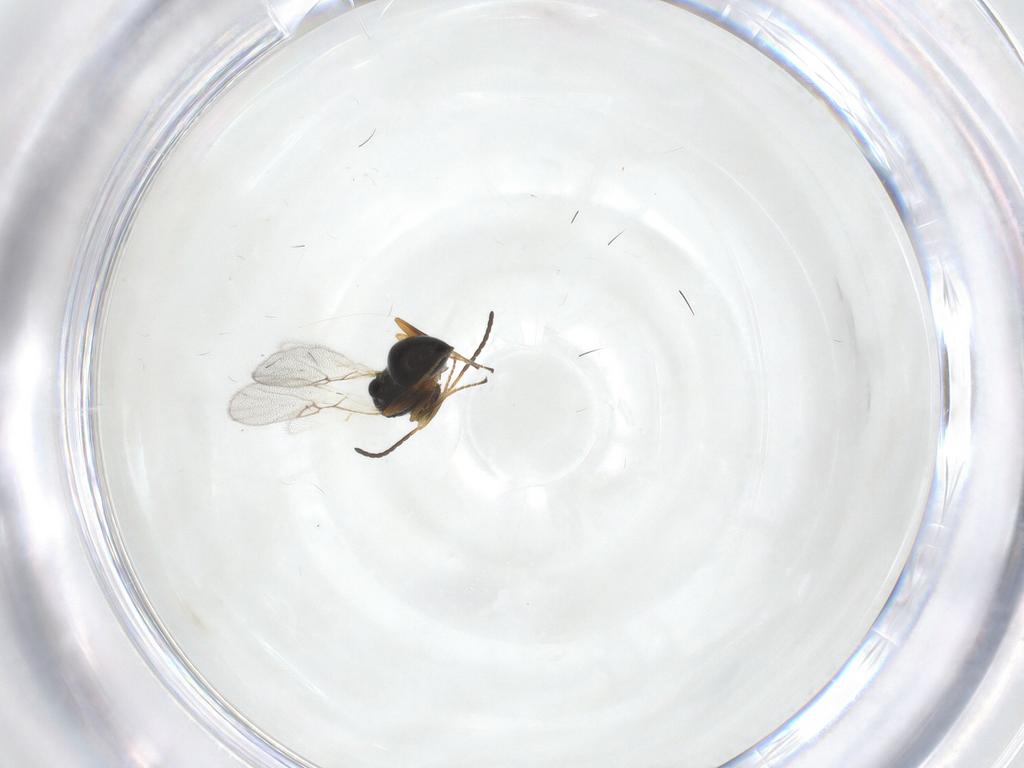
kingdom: Animalia
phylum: Arthropoda
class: Insecta
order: Hymenoptera
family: Figitidae
